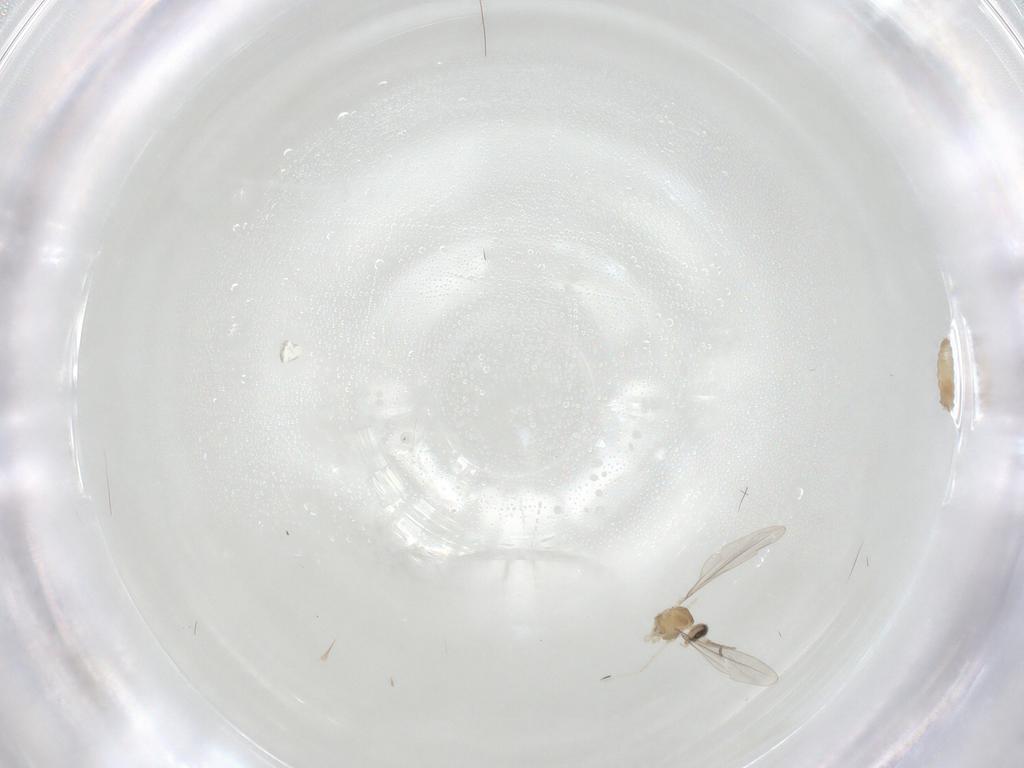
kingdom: Animalia
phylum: Arthropoda
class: Insecta
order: Diptera
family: Cecidomyiidae
